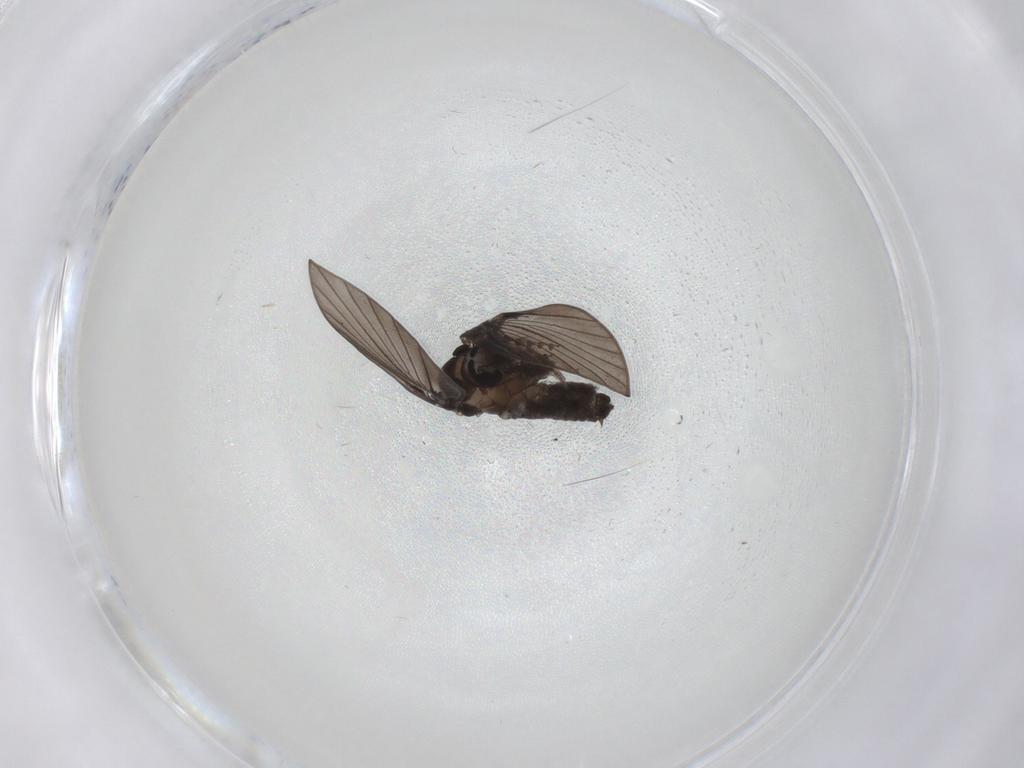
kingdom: Animalia
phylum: Arthropoda
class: Insecta
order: Diptera
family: Psychodidae
